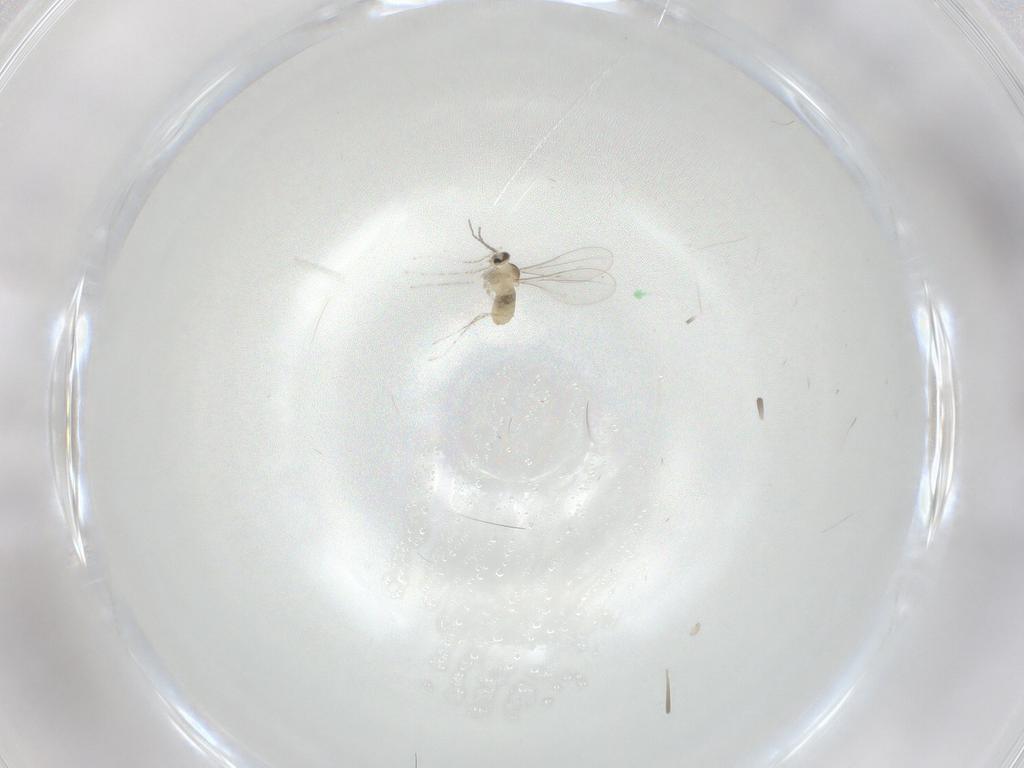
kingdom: Animalia
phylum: Arthropoda
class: Insecta
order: Diptera
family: Cecidomyiidae
